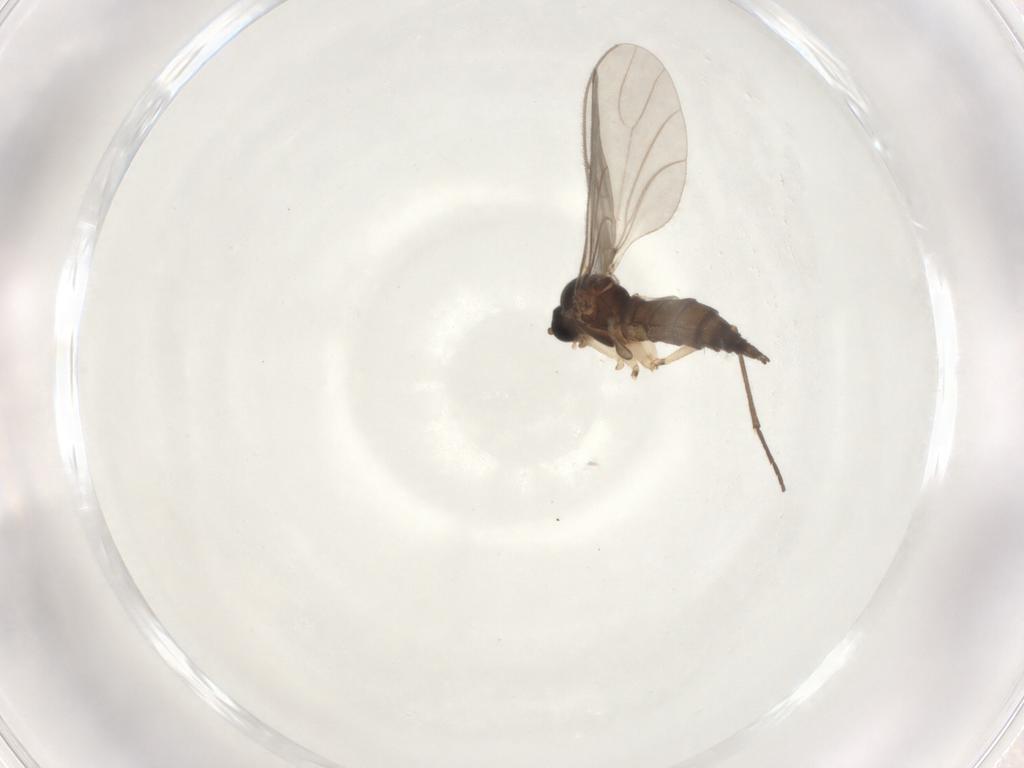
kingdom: Animalia
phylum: Arthropoda
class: Insecta
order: Diptera
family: Sciaridae
